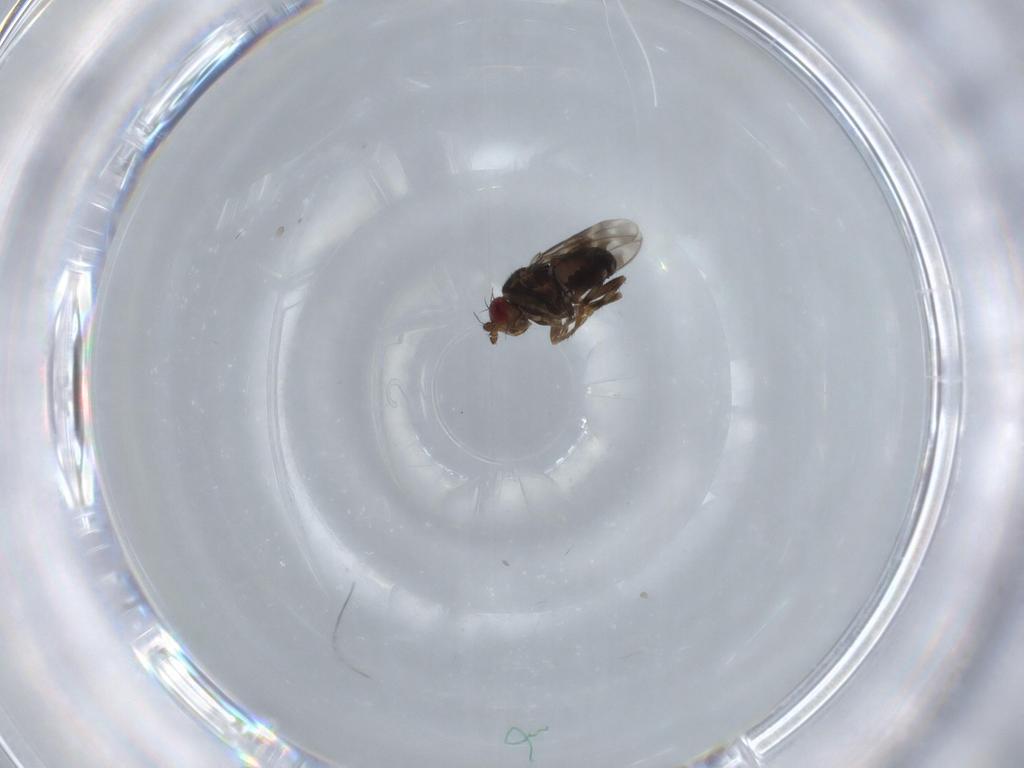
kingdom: Animalia
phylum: Arthropoda
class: Insecta
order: Diptera
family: Sphaeroceridae
